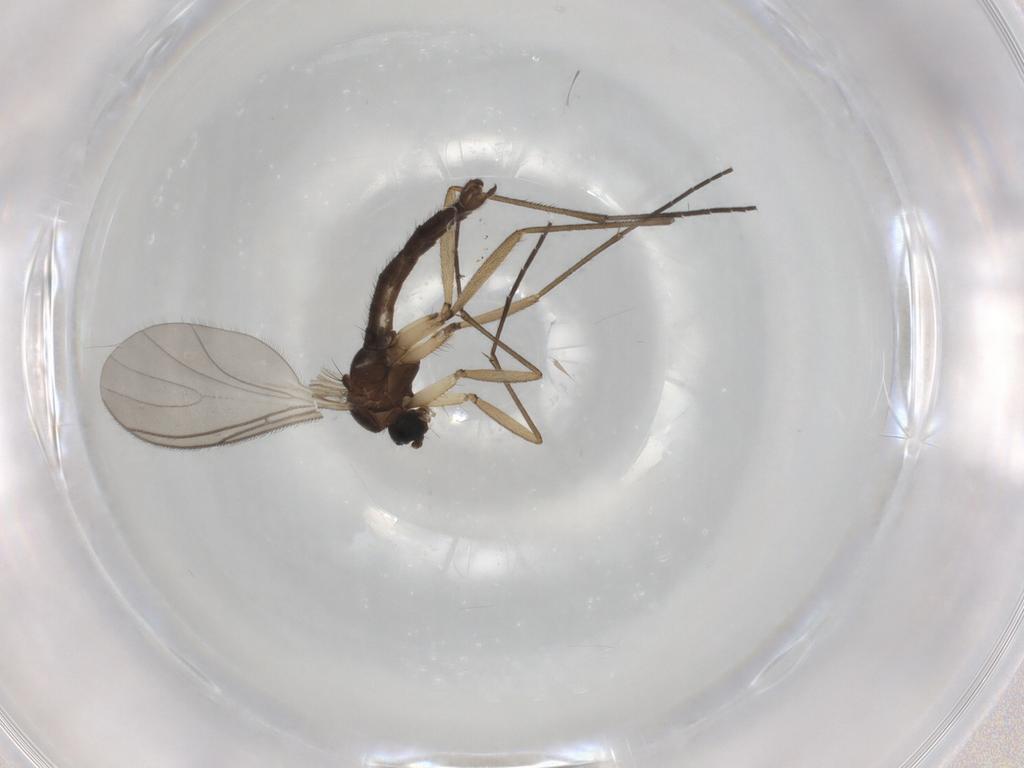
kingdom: Animalia
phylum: Arthropoda
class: Insecta
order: Diptera
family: Sciaridae
